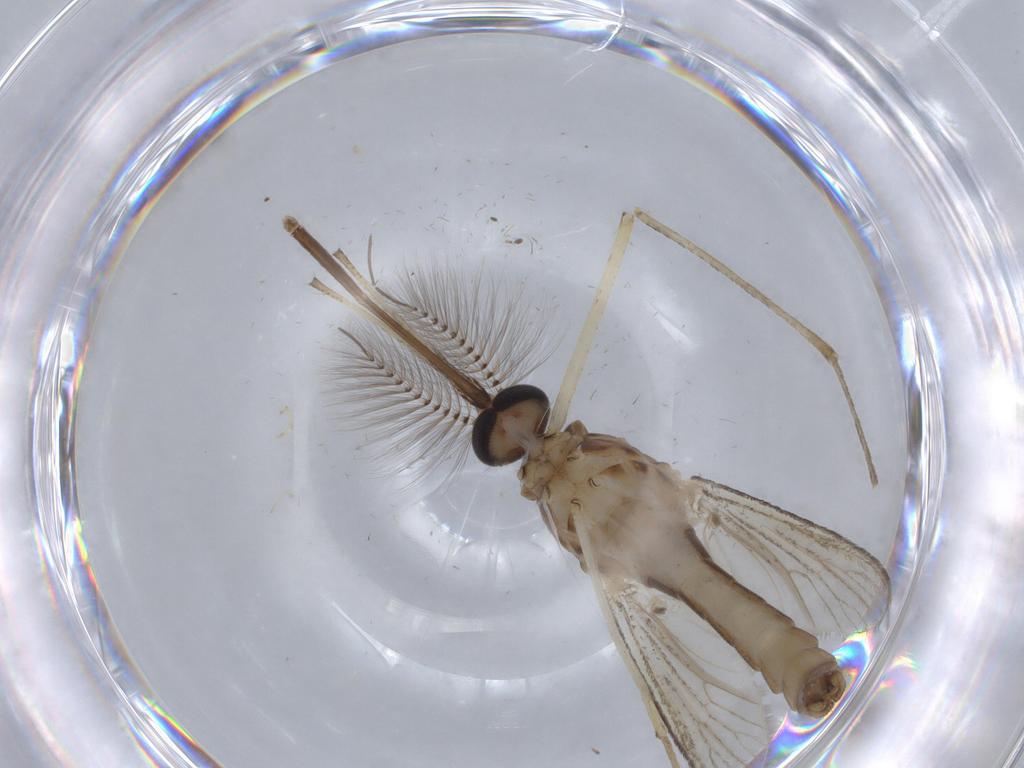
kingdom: Animalia
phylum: Arthropoda
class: Insecta
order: Diptera
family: Culicidae
